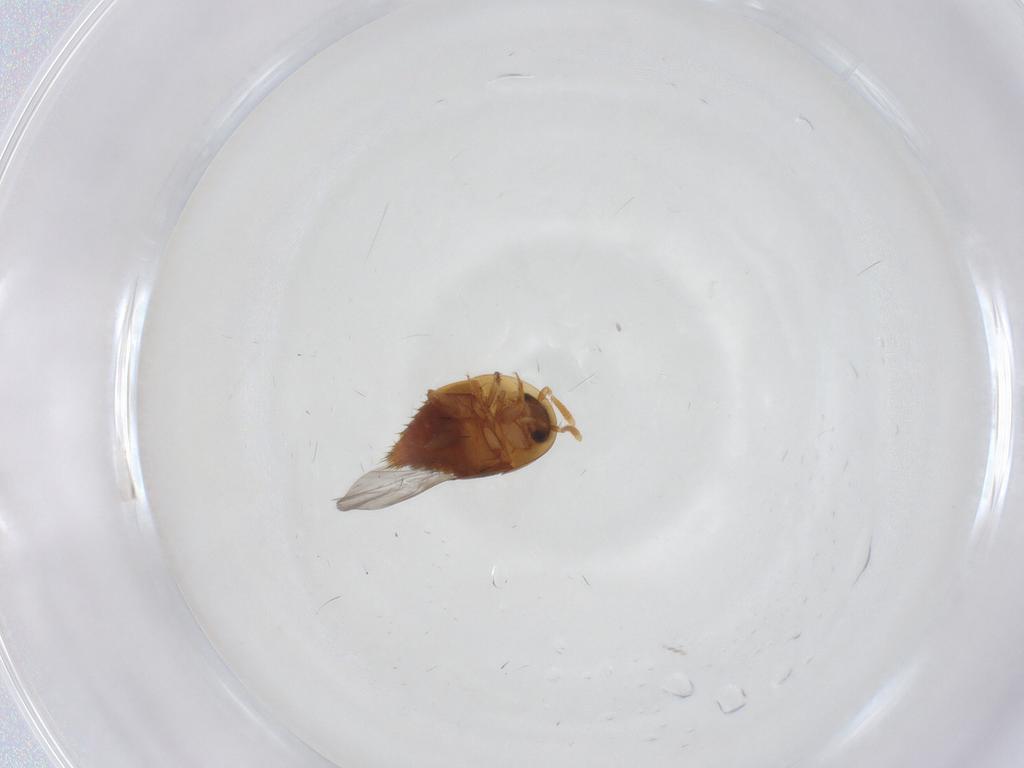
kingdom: Animalia
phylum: Arthropoda
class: Insecta
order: Coleoptera
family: Staphylinidae
